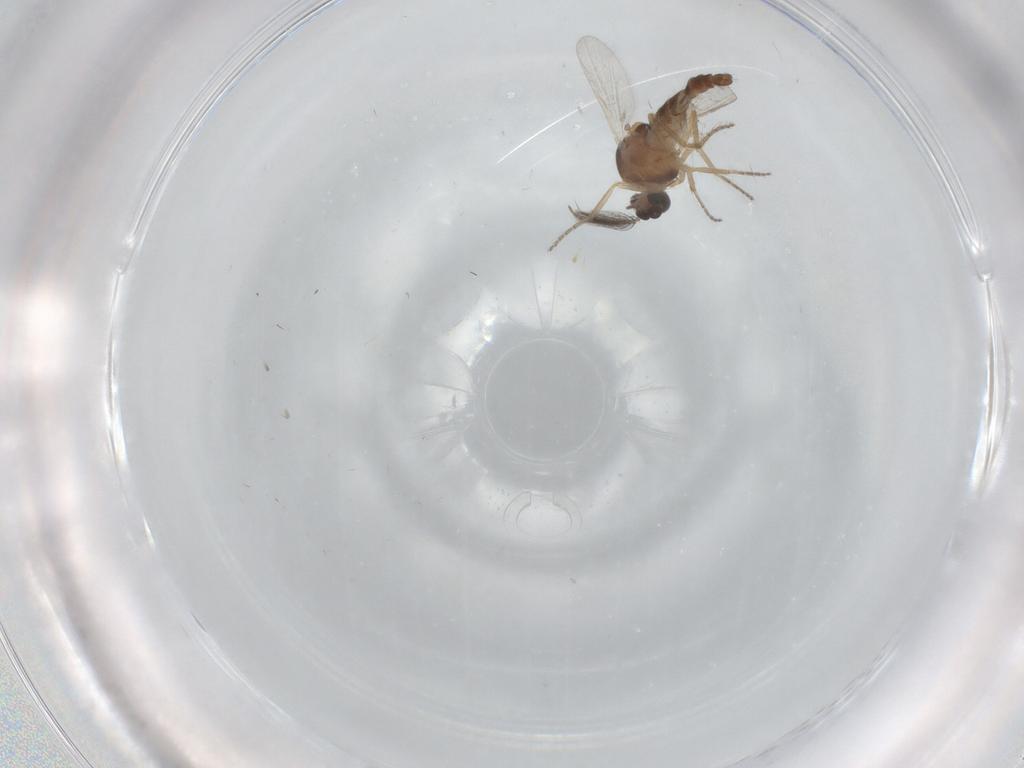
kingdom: Animalia
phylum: Arthropoda
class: Insecta
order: Diptera
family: Ceratopogonidae
